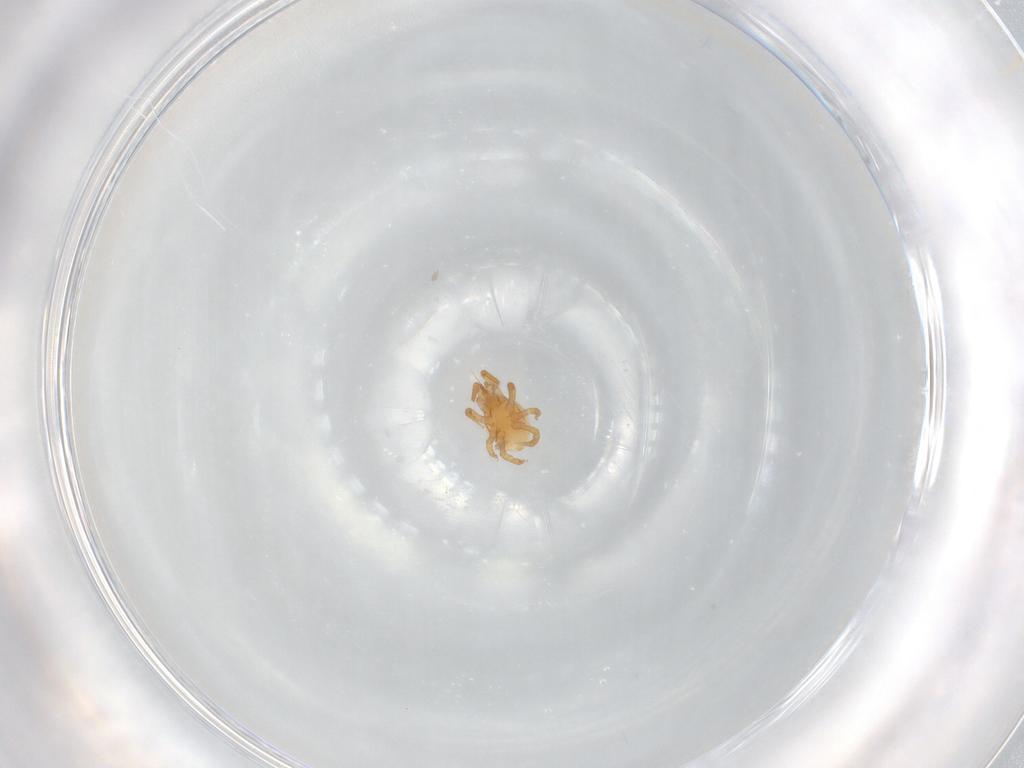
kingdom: Animalia
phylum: Arthropoda
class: Arachnida
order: Mesostigmata
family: Parasitidae
